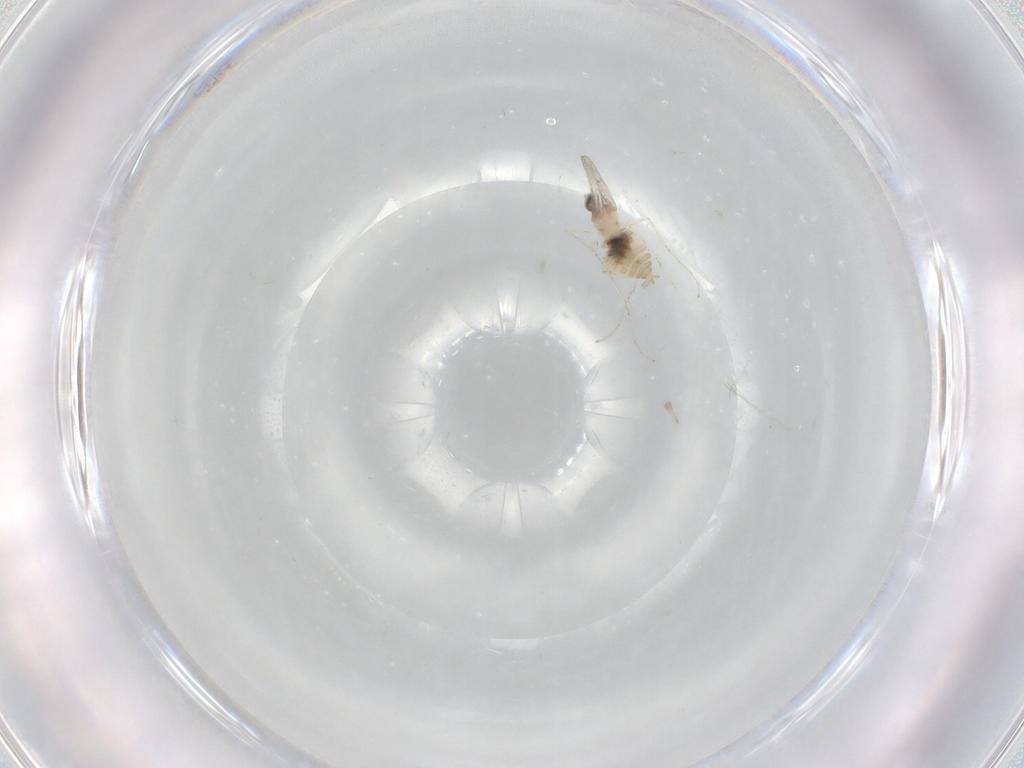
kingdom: Animalia
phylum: Arthropoda
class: Insecta
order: Diptera
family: Cecidomyiidae
